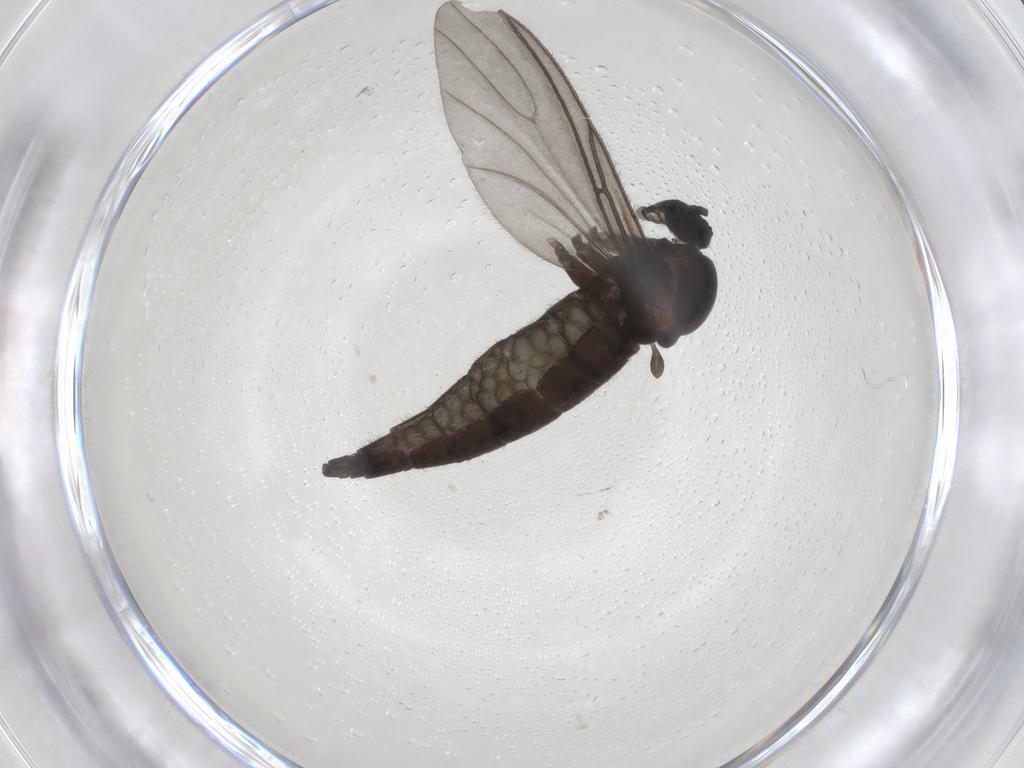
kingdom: Animalia
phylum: Arthropoda
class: Insecta
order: Diptera
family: Sciaridae
